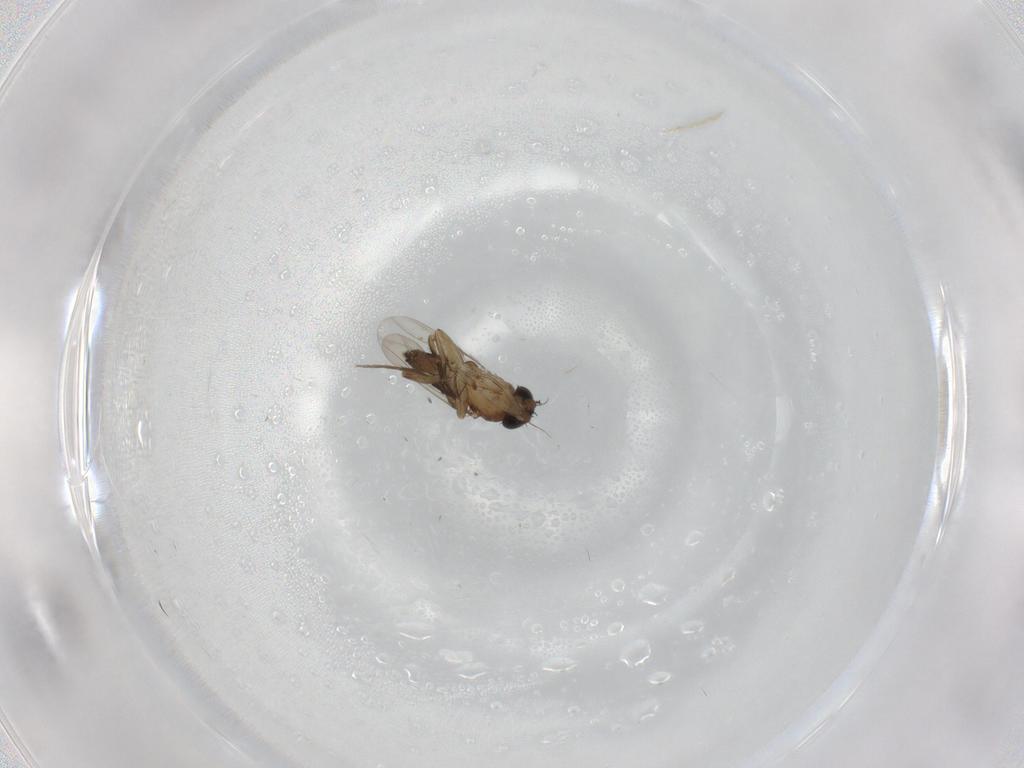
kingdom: Animalia
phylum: Arthropoda
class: Insecta
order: Diptera
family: Phoridae
